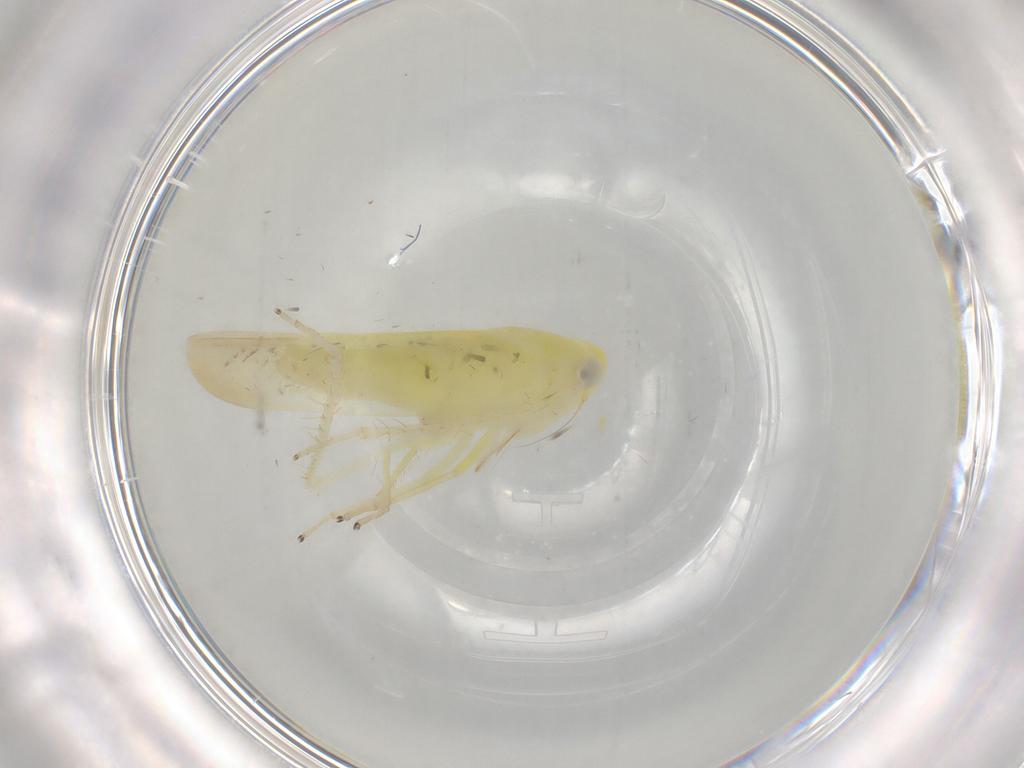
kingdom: Animalia
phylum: Arthropoda
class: Insecta
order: Hemiptera
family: Cicadellidae
